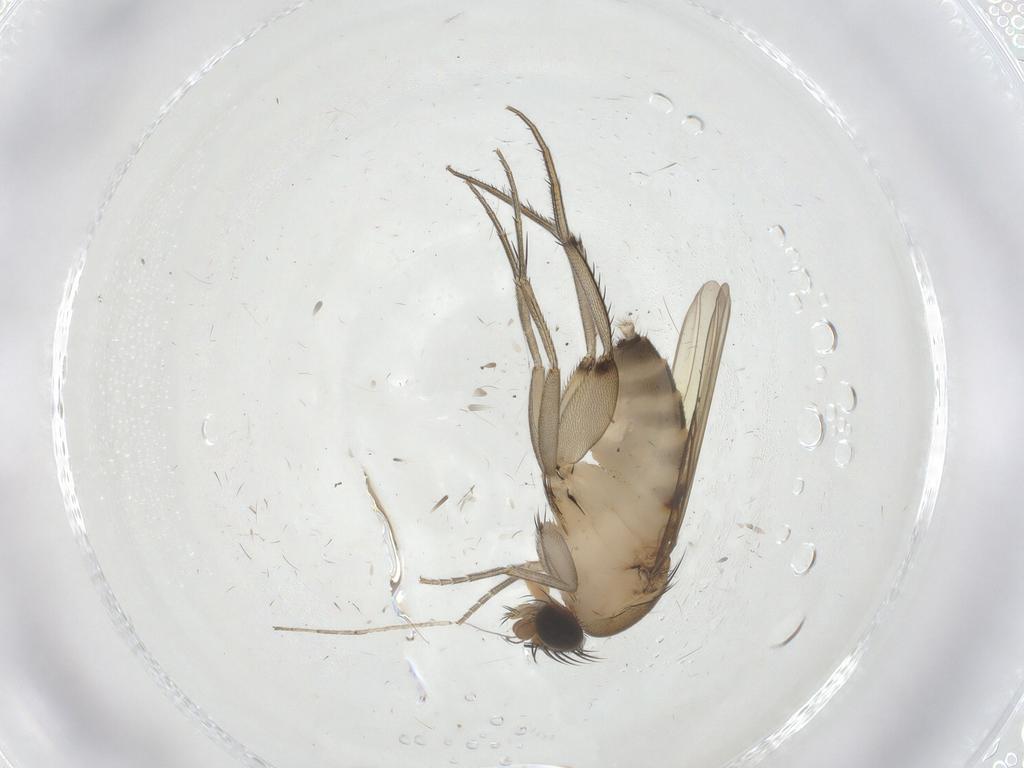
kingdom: Animalia
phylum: Arthropoda
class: Insecta
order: Diptera
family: Phoridae
